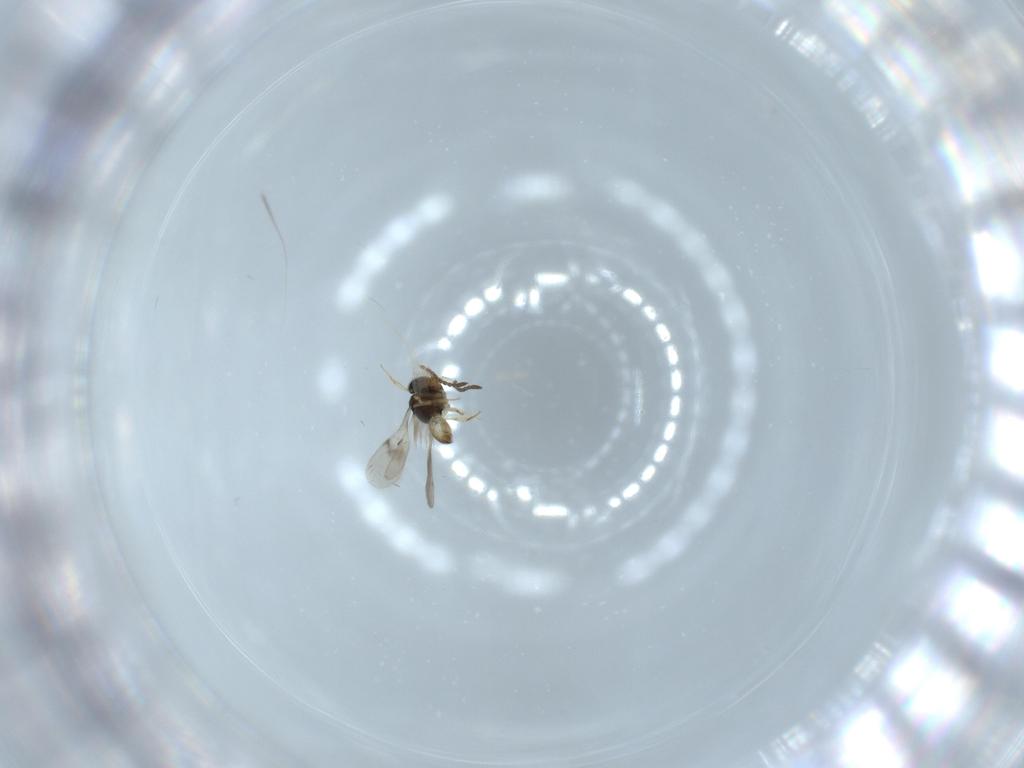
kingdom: Animalia
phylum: Arthropoda
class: Insecta
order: Hymenoptera
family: Scelionidae
